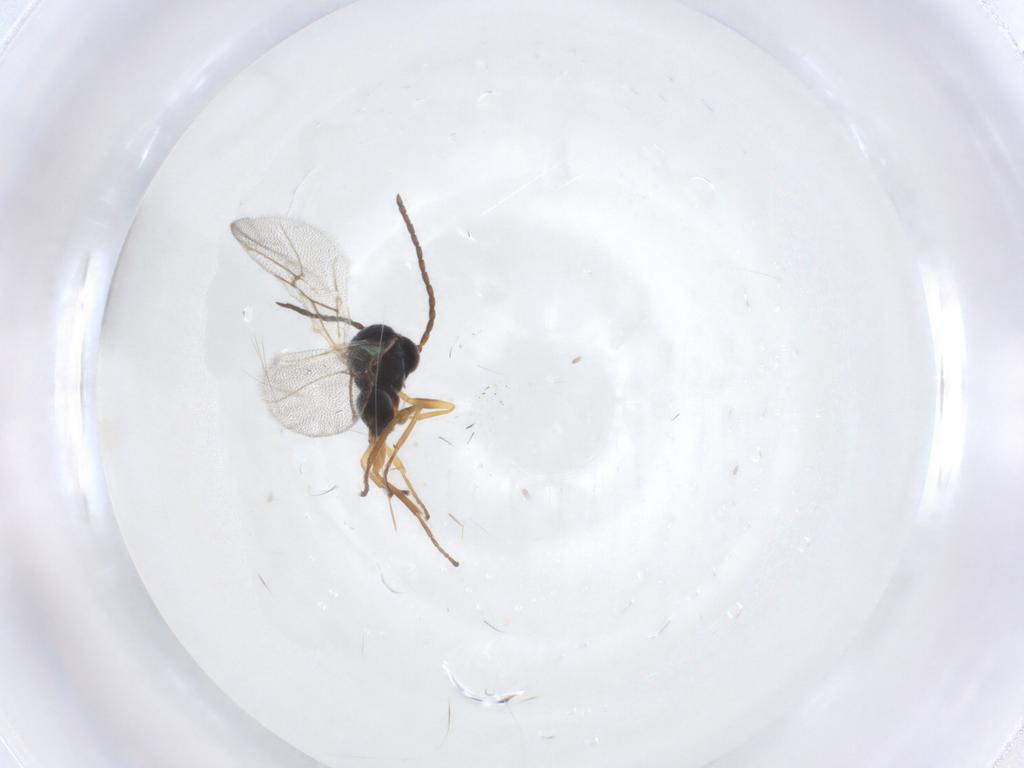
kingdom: Animalia
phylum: Arthropoda
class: Insecta
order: Hymenoptera
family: Cynipidae
